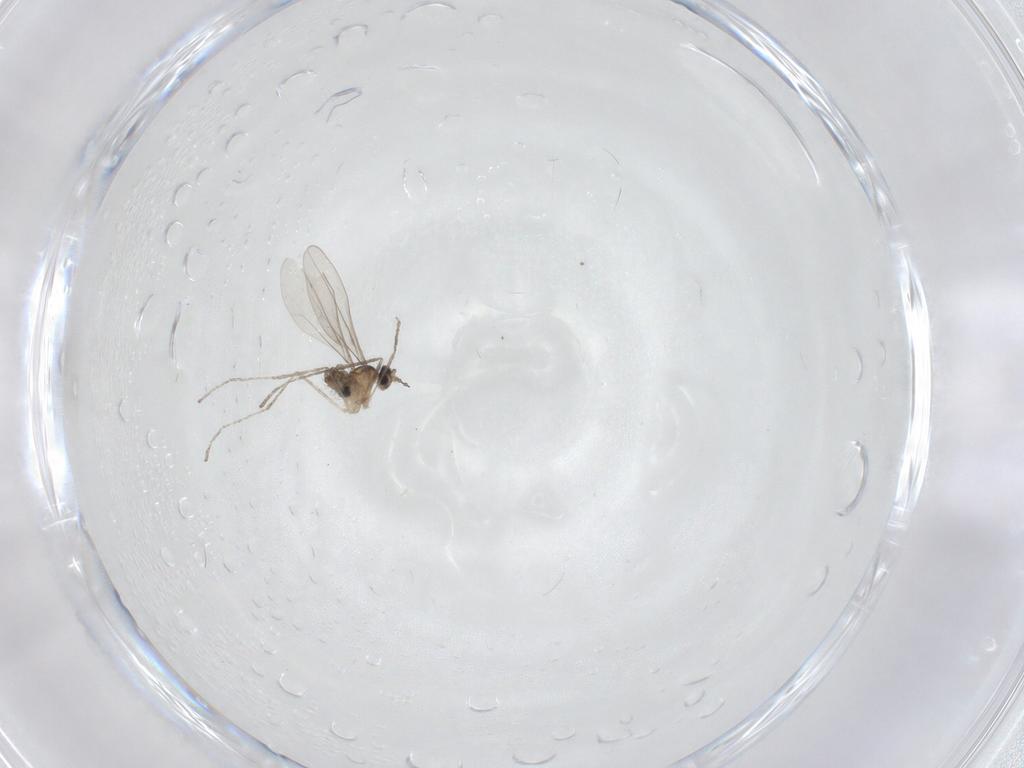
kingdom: Animalia
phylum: Arthropoda
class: Insecta
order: Diptera
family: Cecidomyiidae
